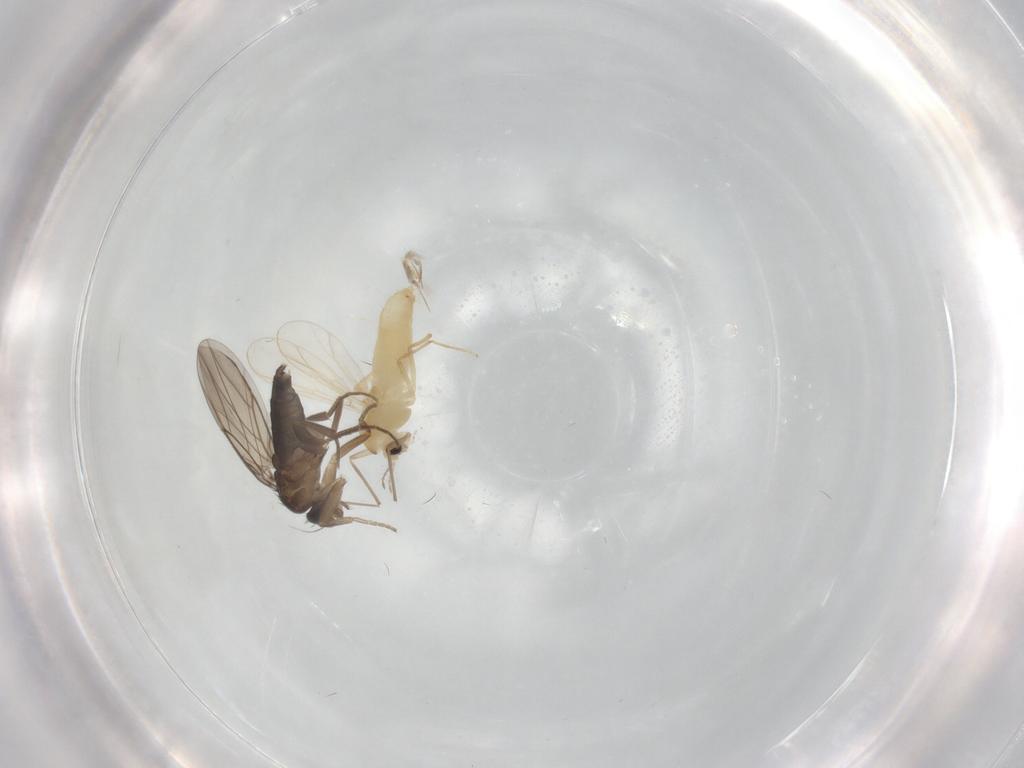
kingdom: Animalia
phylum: Arthropoda
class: Insecta
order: Diptera
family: Chironomidae
